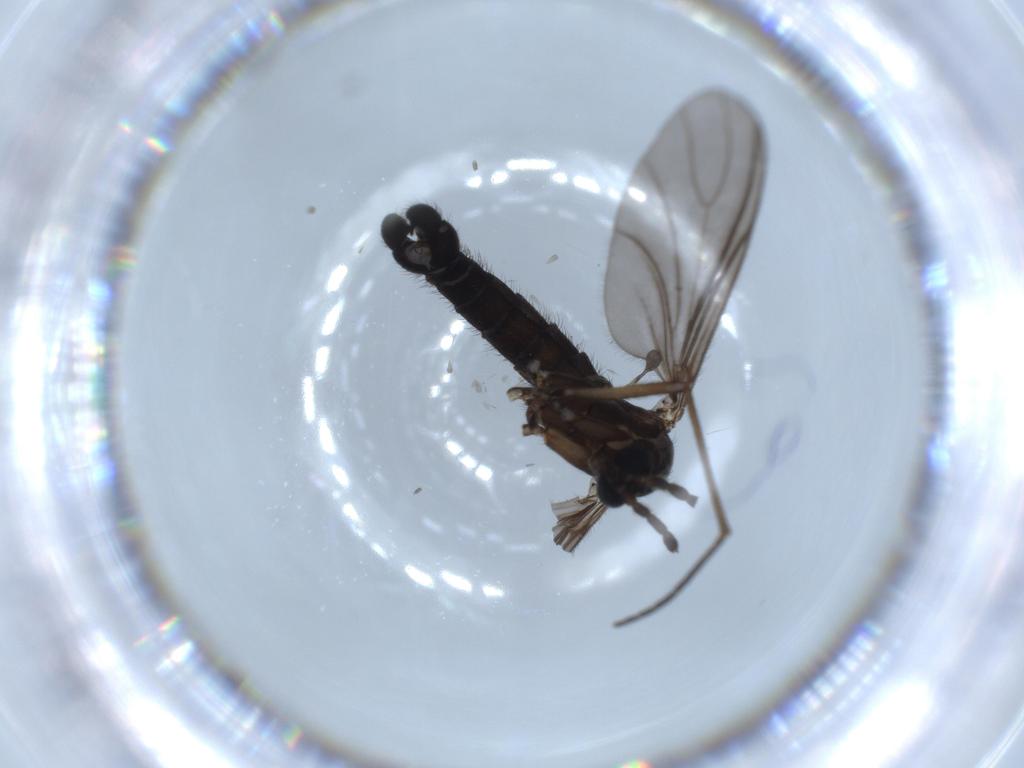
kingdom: Animalia
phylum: Arthropoda
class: Insecta
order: Diptera
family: Sciaridae
